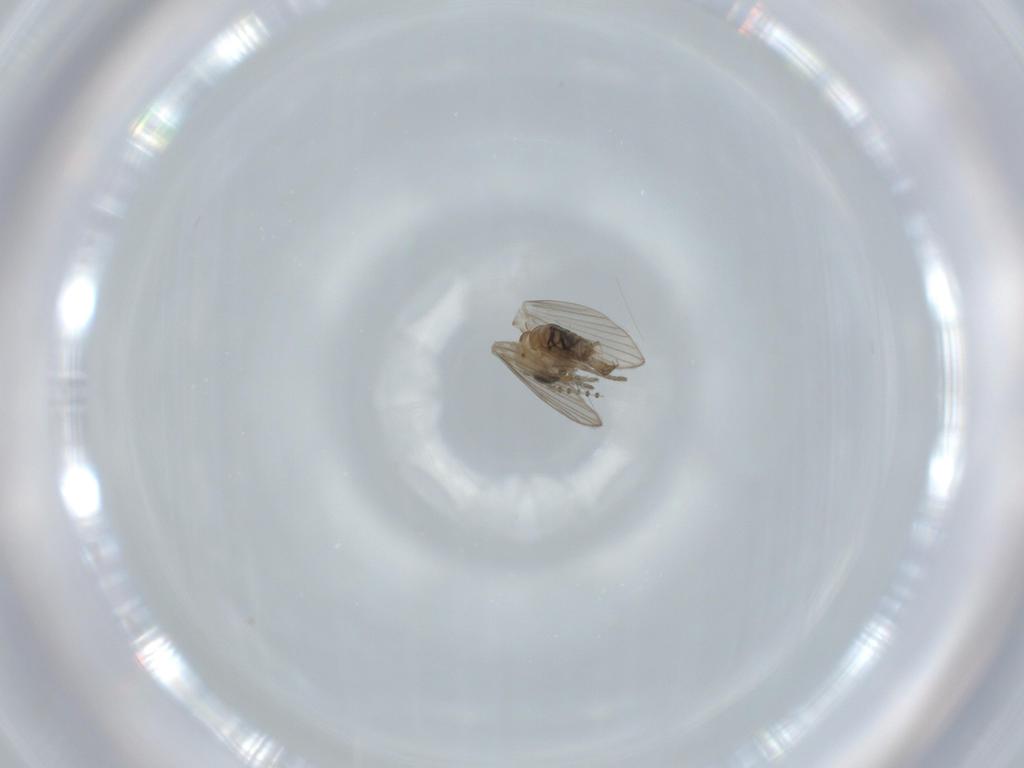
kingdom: Animalia
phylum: Arthropoda
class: Insecta
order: Diptera
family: Psychodidae
